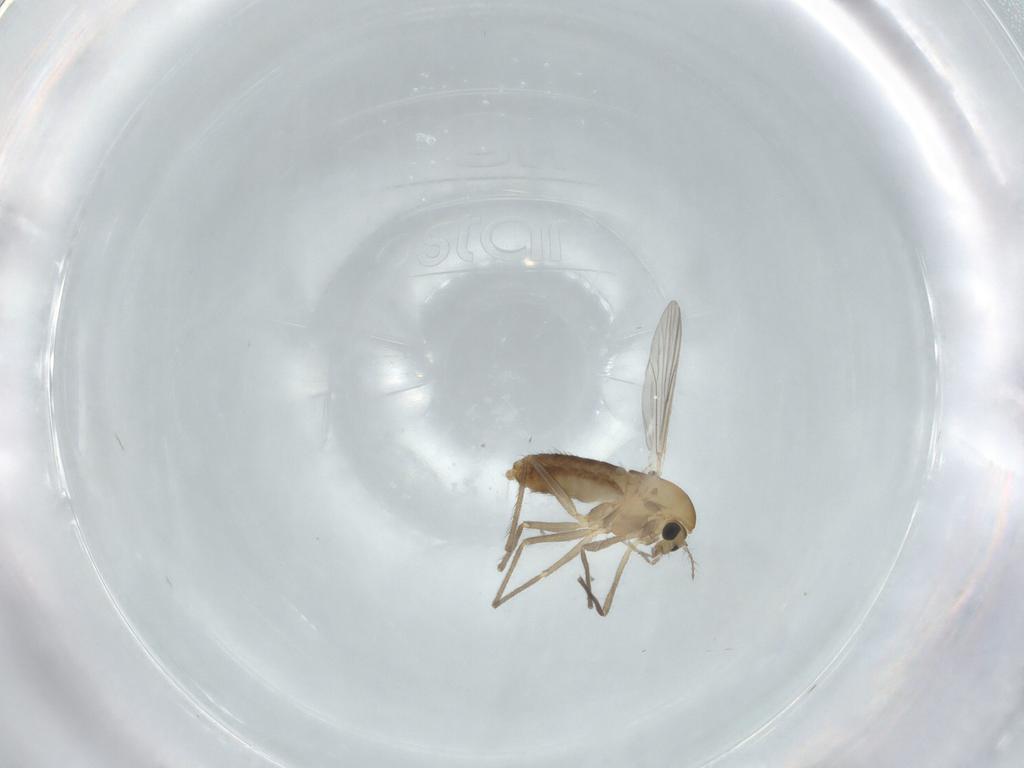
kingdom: Animalia
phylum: Arthropoda
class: Insecta
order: Diptera
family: Chironomidae
